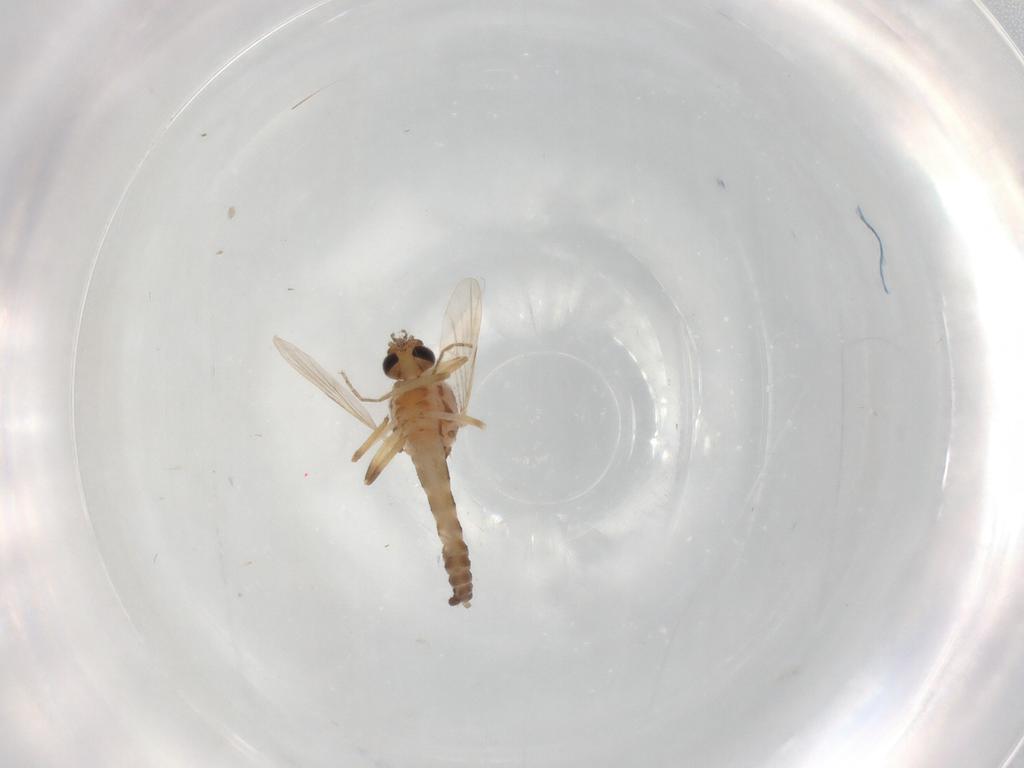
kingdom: Animalia
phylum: Arthropoda
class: Insecta
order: Diptera
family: Ceratopogonidae
